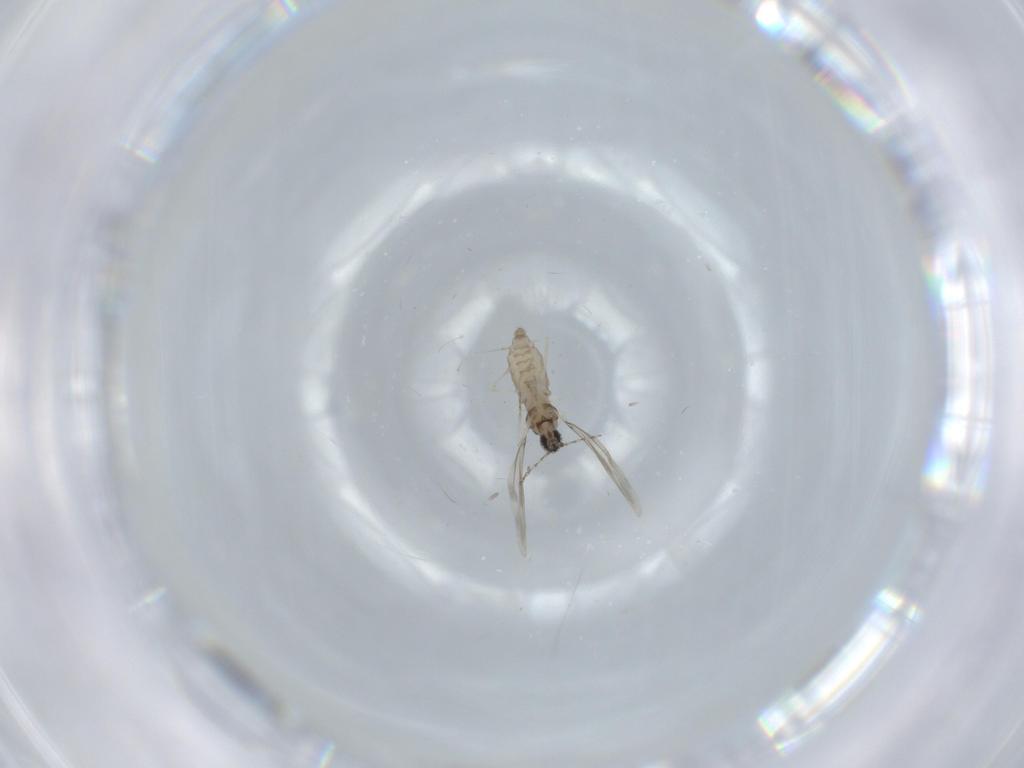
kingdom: Animalia
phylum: Arthropoda
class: Insecta
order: Diptera
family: Cecidomyiidae
